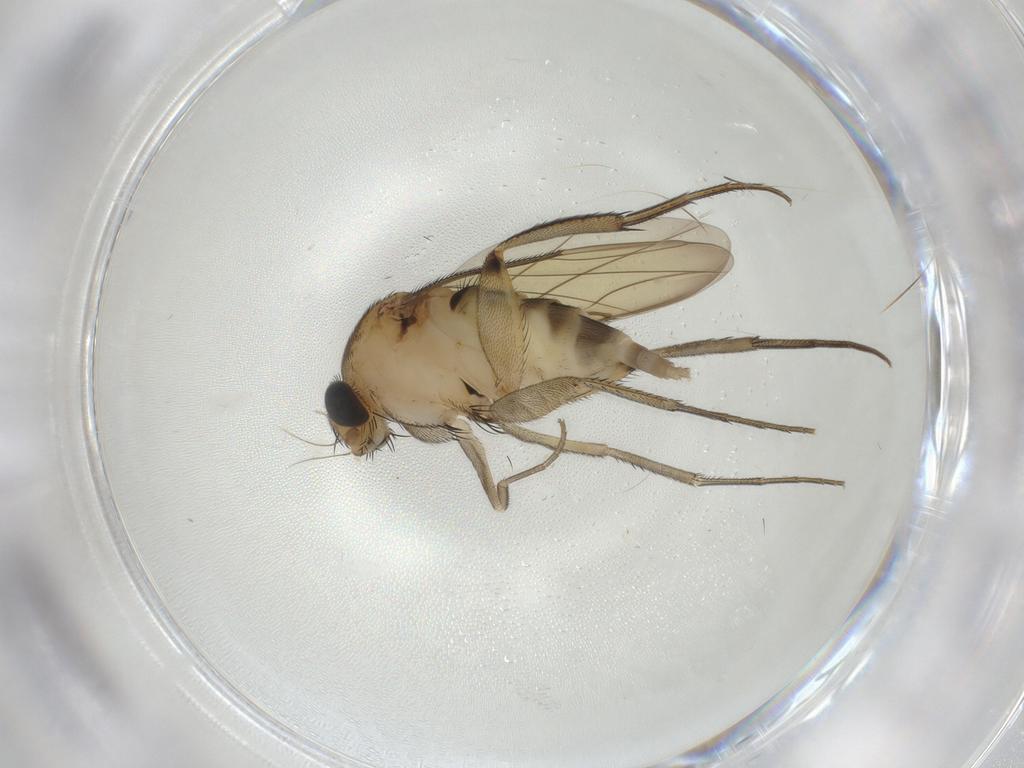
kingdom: Animalia
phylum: Arthropoda
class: Insecta
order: Diptera
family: Phoridae
